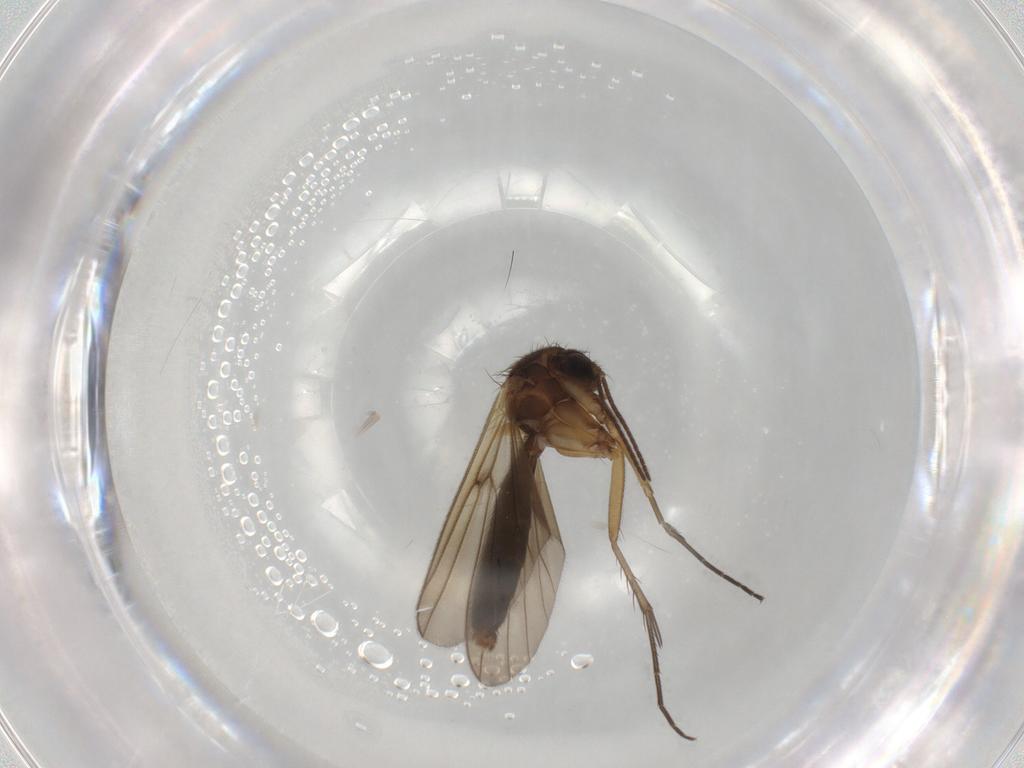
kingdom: Animalia
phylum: Arthropoda
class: Insecta
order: Diptera
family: Mycetophilidae
